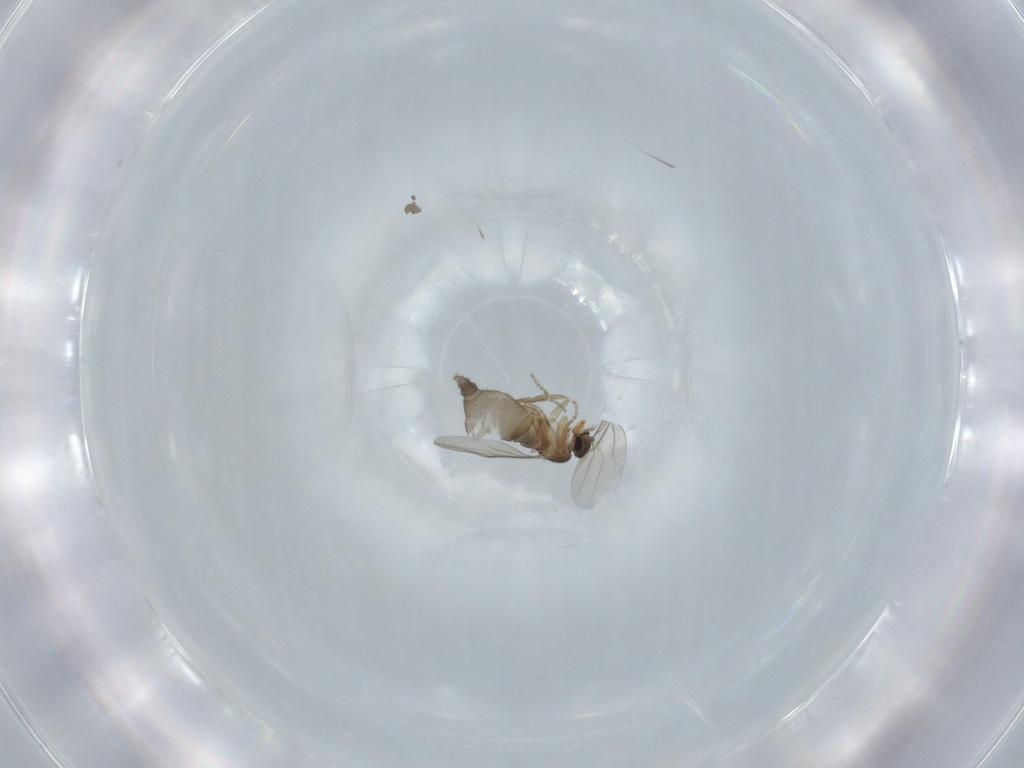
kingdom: Animalia
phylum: Arthropoda
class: Insecta
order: Diptera
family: Phoridae
